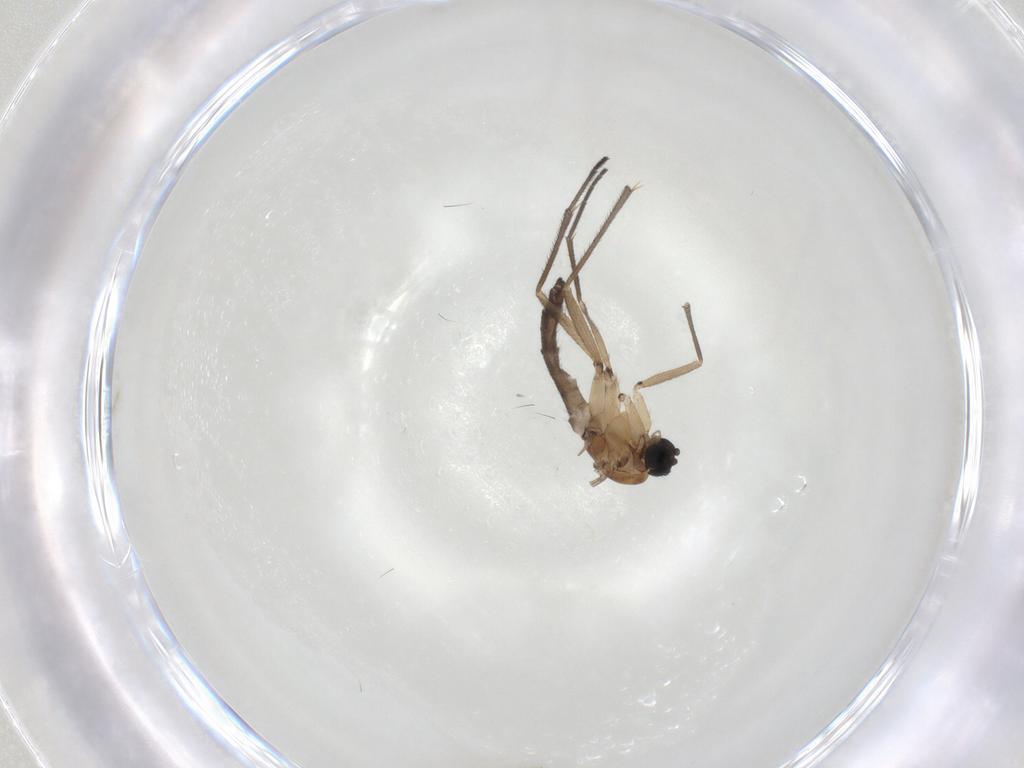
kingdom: Animalia
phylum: Arthropoda
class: Insecta
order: Diptera
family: Sciaridae
